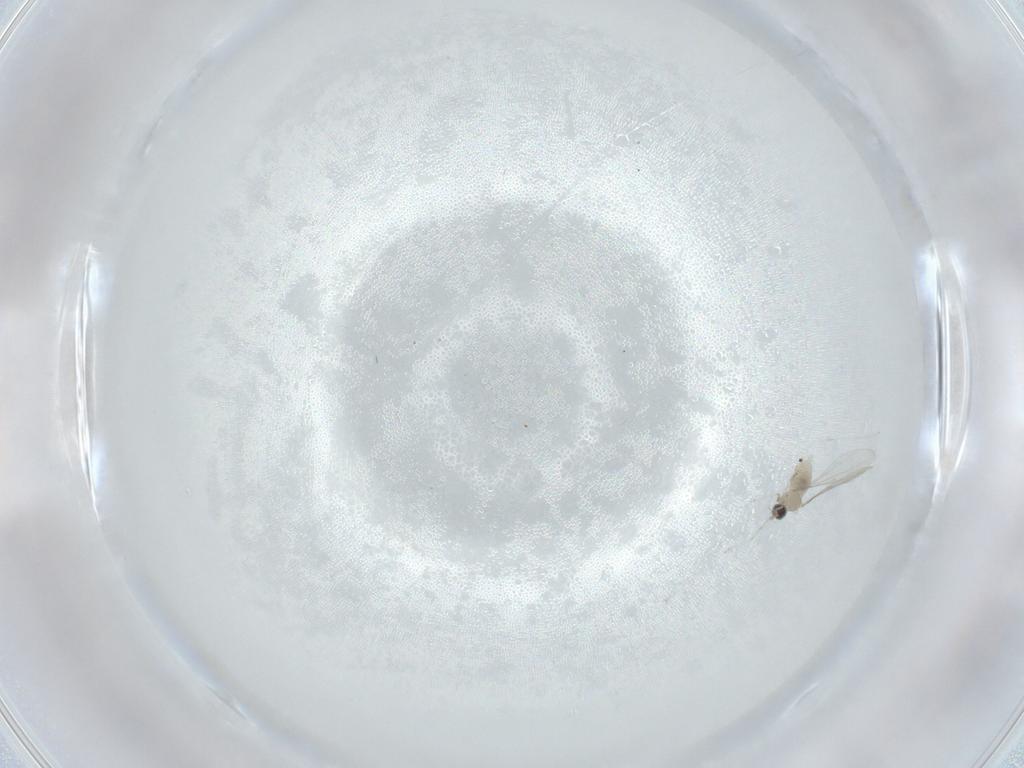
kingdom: Animalia
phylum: Arthropoda
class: Insecta
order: Diptera
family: Cecidomyiidae
